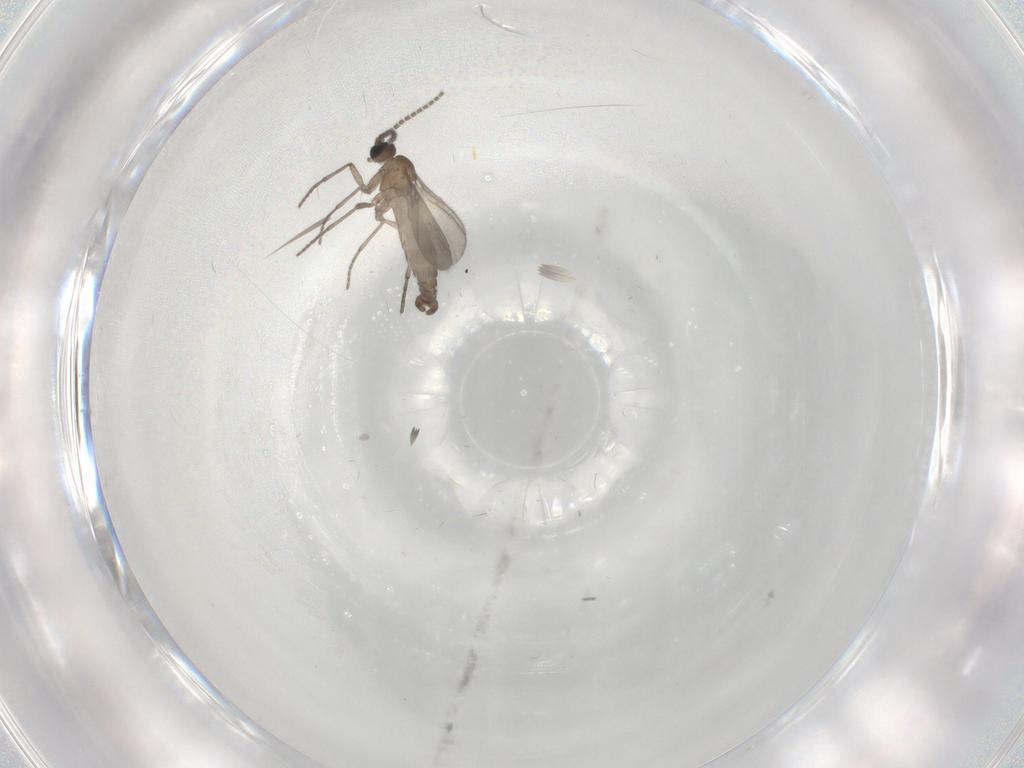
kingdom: Animalia
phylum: Arthropoda
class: Insecta
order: Diptera
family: Sciaridae
